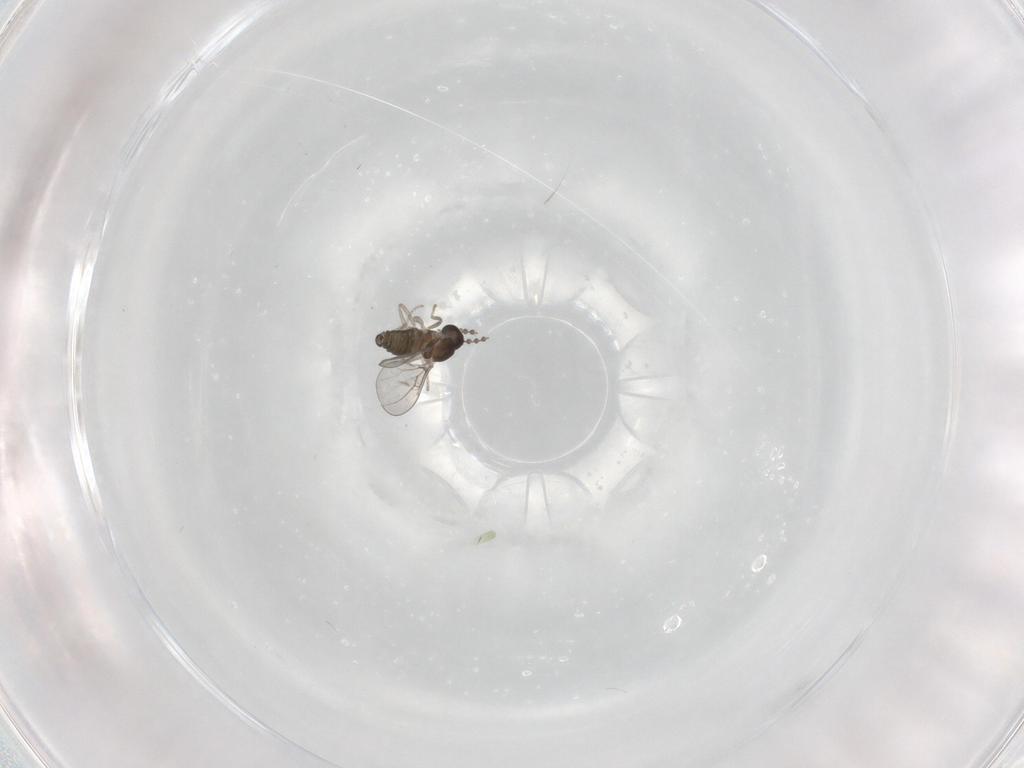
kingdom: Animalia
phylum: Arthropoda
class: Insecta
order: Diptera
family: Cecidomyiidae
